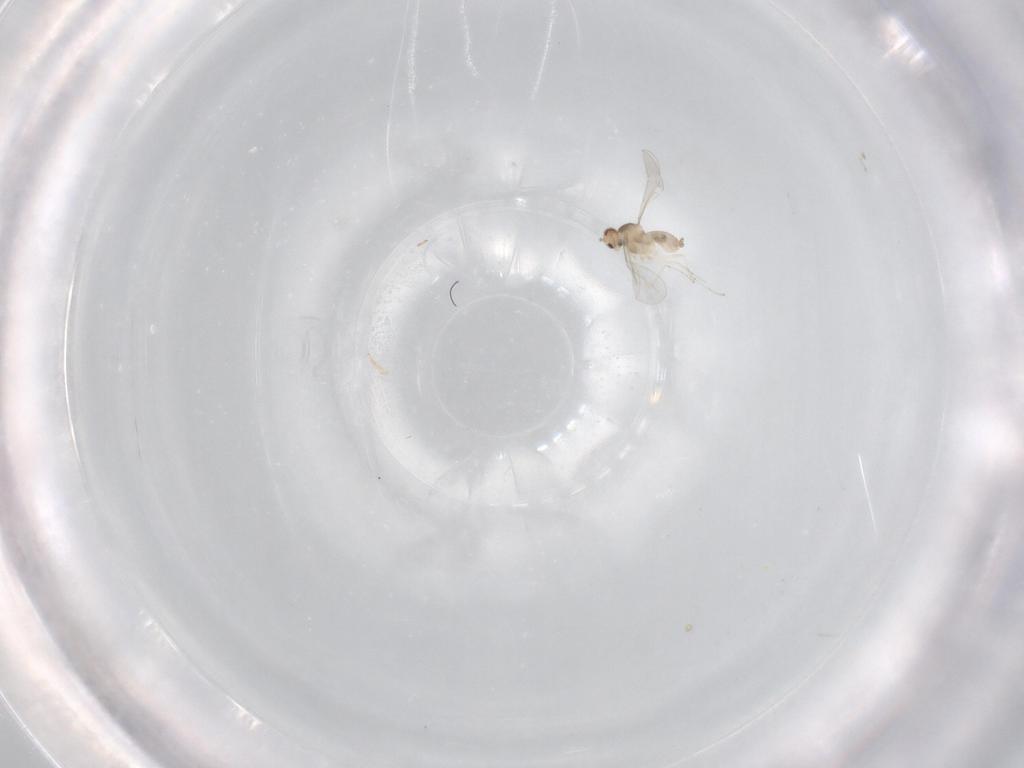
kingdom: Animalia
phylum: Arthropoda
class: Insecta
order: Diptera
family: Cecidomyiidae
